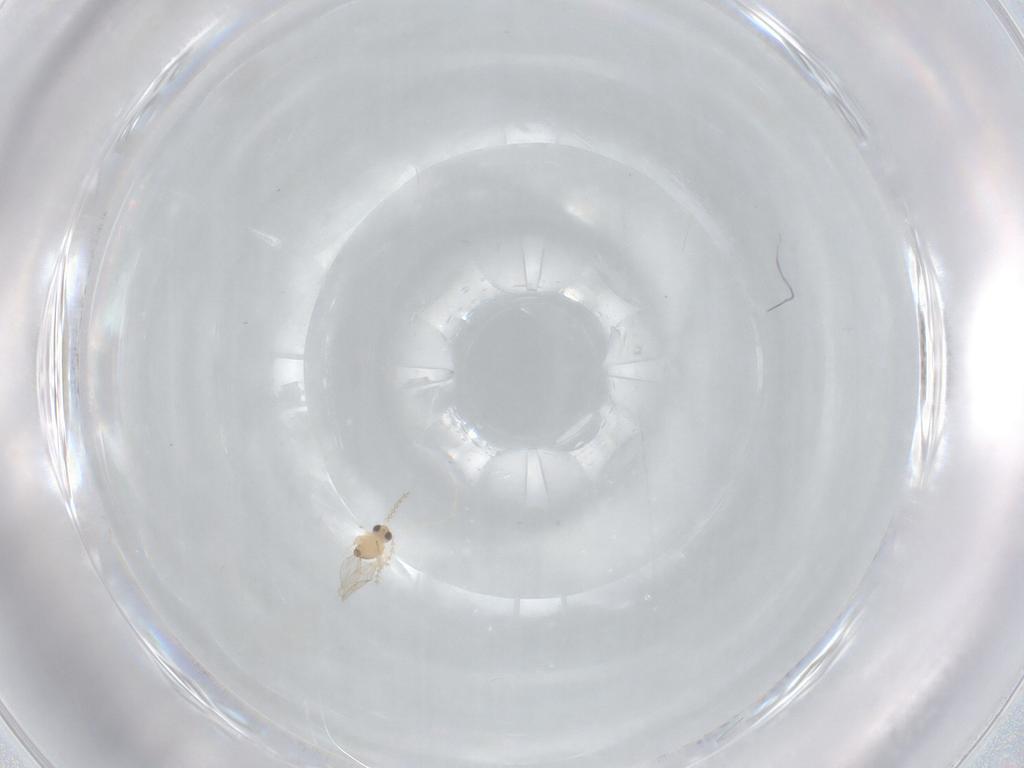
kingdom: Animalia
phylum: Arthropoda
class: Insecta
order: Diptera
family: Cecidomyiidae
